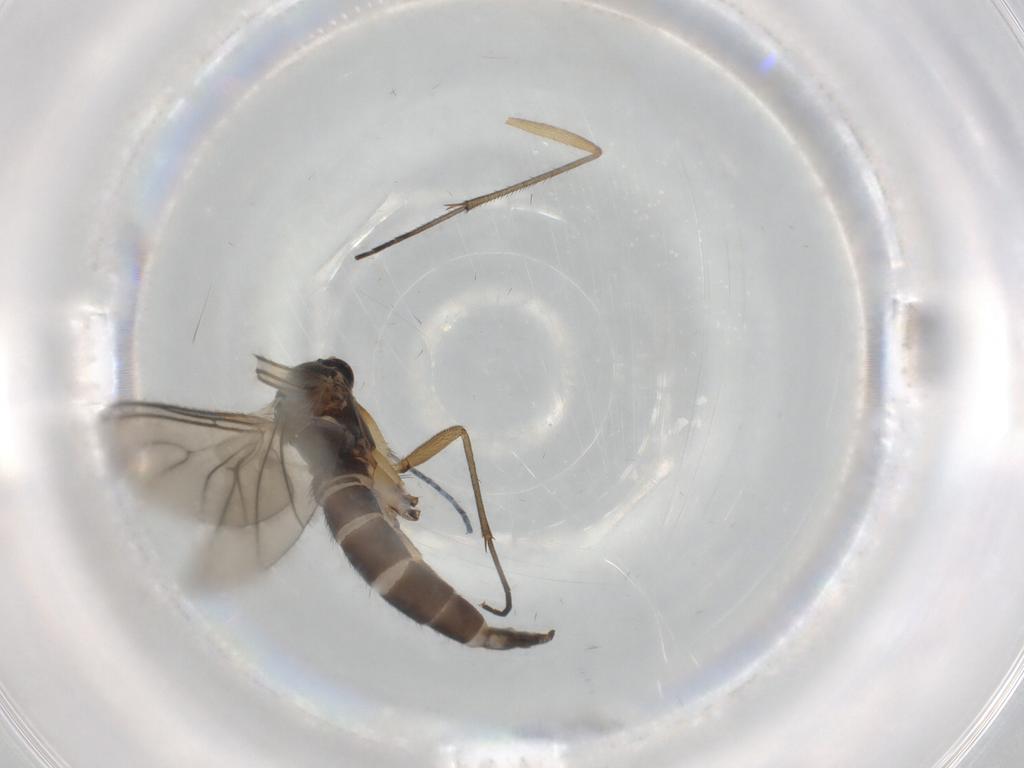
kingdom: Animalia
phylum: Arthropoda
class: Insecta
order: Diptera
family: Sciaridae
